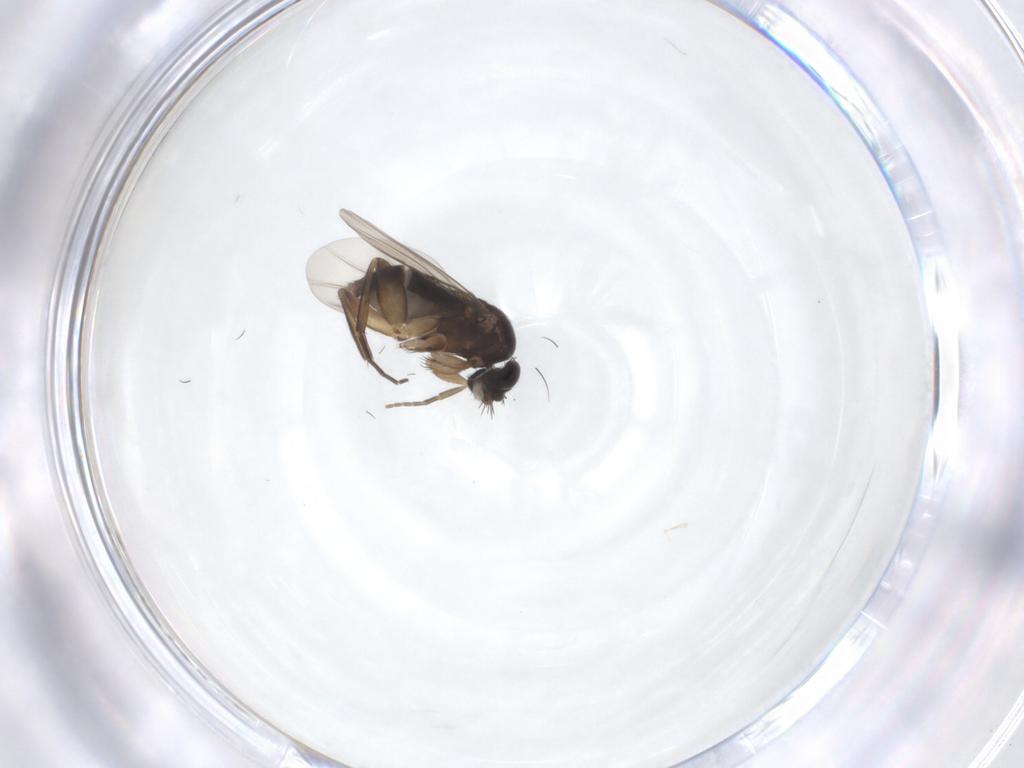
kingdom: Animalia
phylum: Arthropoda
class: Insecta
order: Diptera
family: Phoridae
